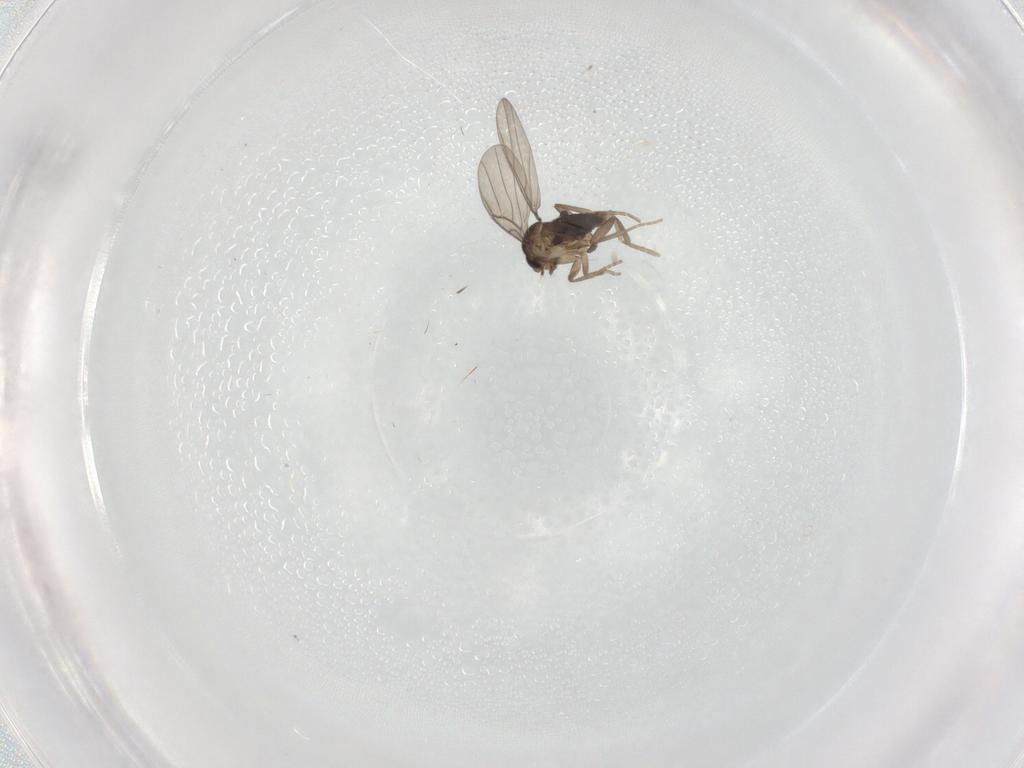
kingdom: Animalia
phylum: Arthropoda
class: Insecta
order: Diptera
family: Phoridae
